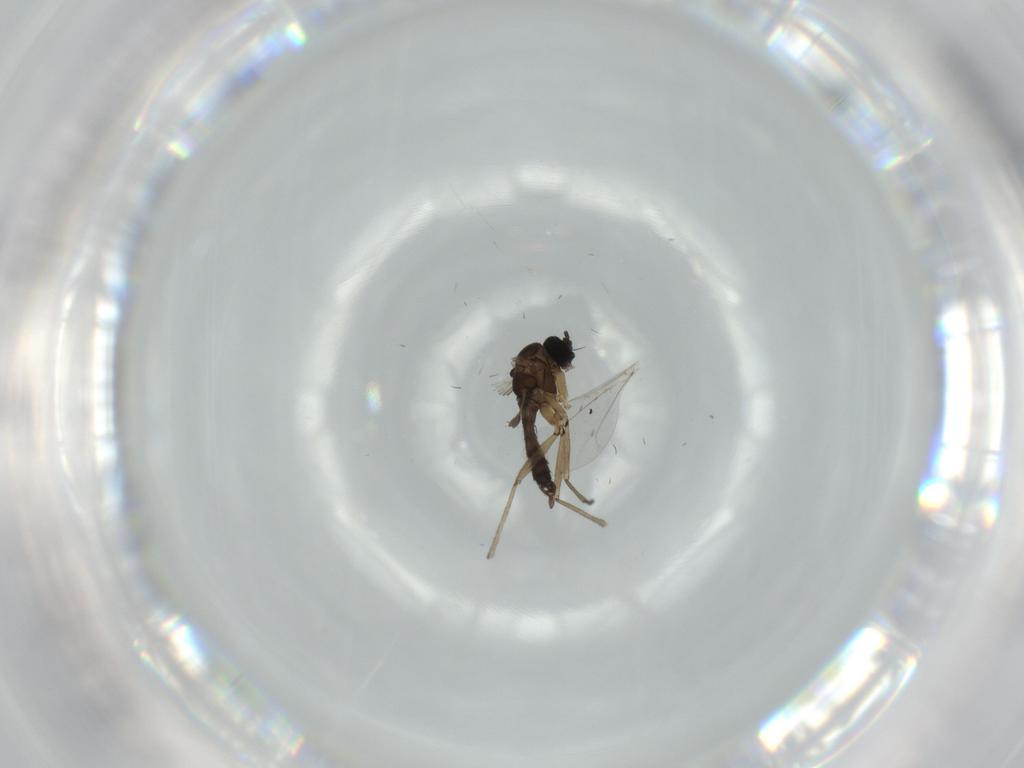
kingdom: Animalia
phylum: Arthropoda
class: Insecta
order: Diptera
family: Sciaridae
